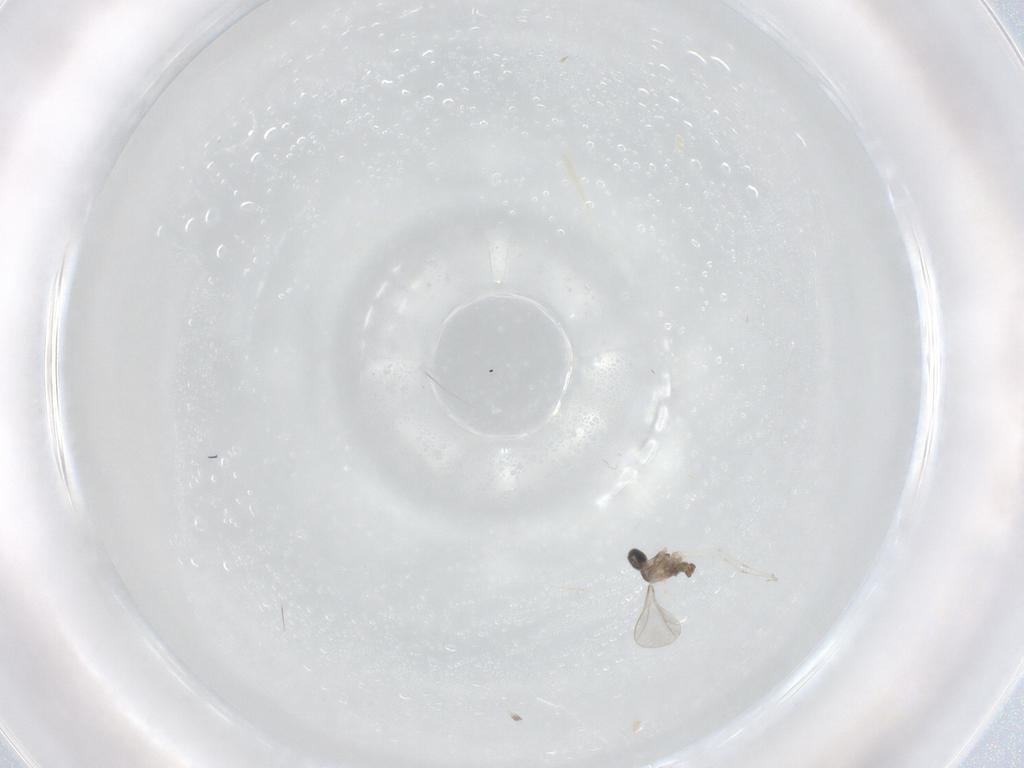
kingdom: Animalia
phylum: Arthropoda
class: Insecta
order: Diptera
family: Cecidomyiidae
